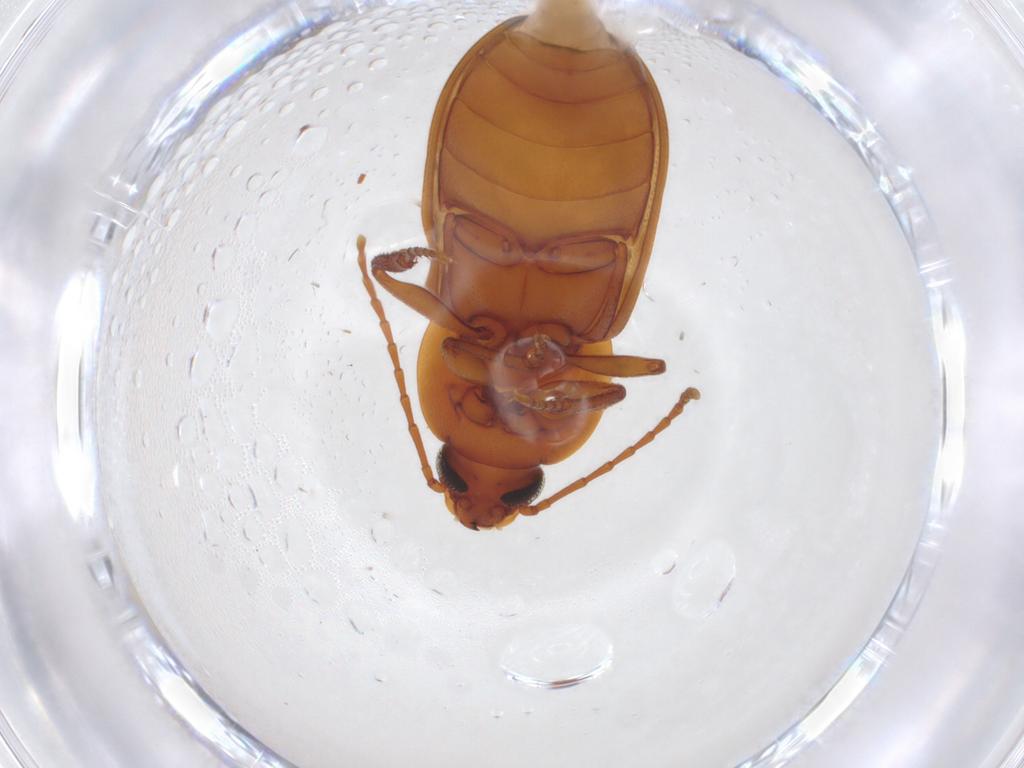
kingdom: Animalia
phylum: Arthropoda
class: Insecta
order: Coleoptera
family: Tenebrionidae
